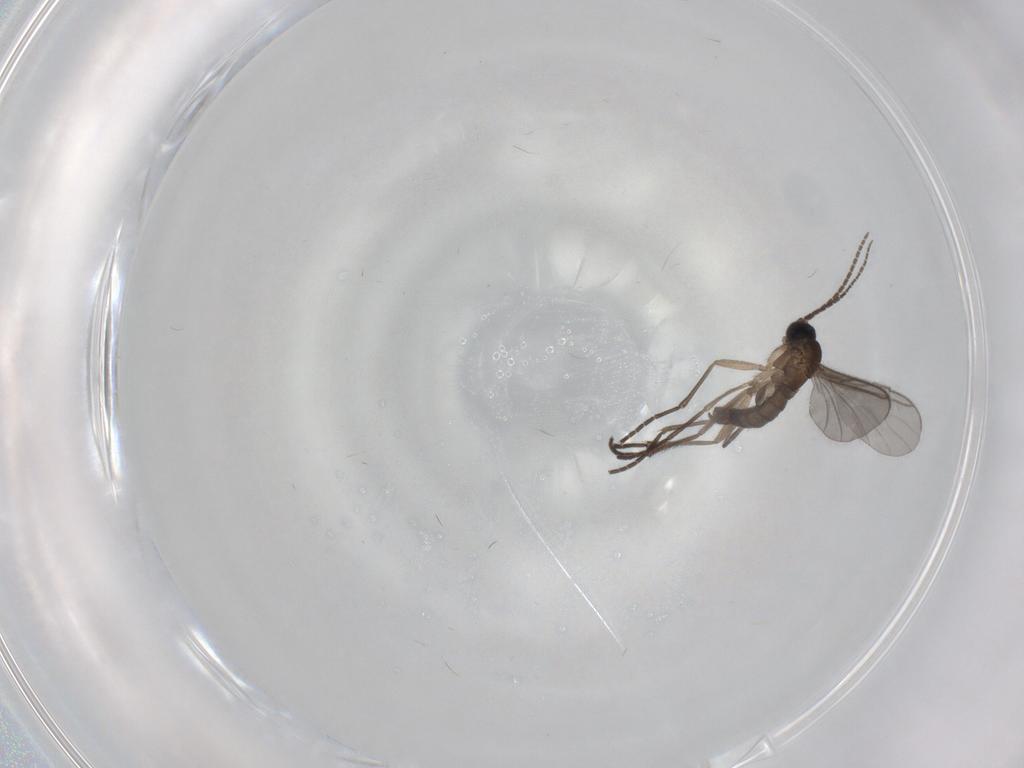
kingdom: Animalia
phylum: Arthropoda
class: Insecta
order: Diptera
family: Sciaridae
